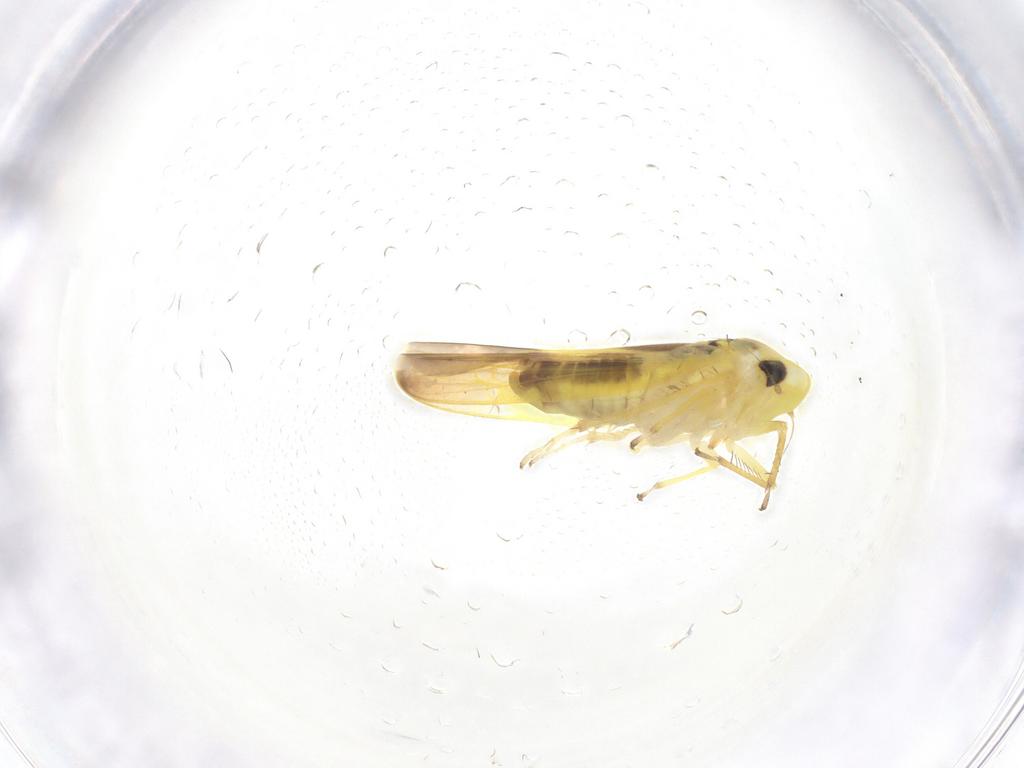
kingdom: Animalia
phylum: Arthropoda
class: Insecta
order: Hemiptera
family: Cicadellidae
